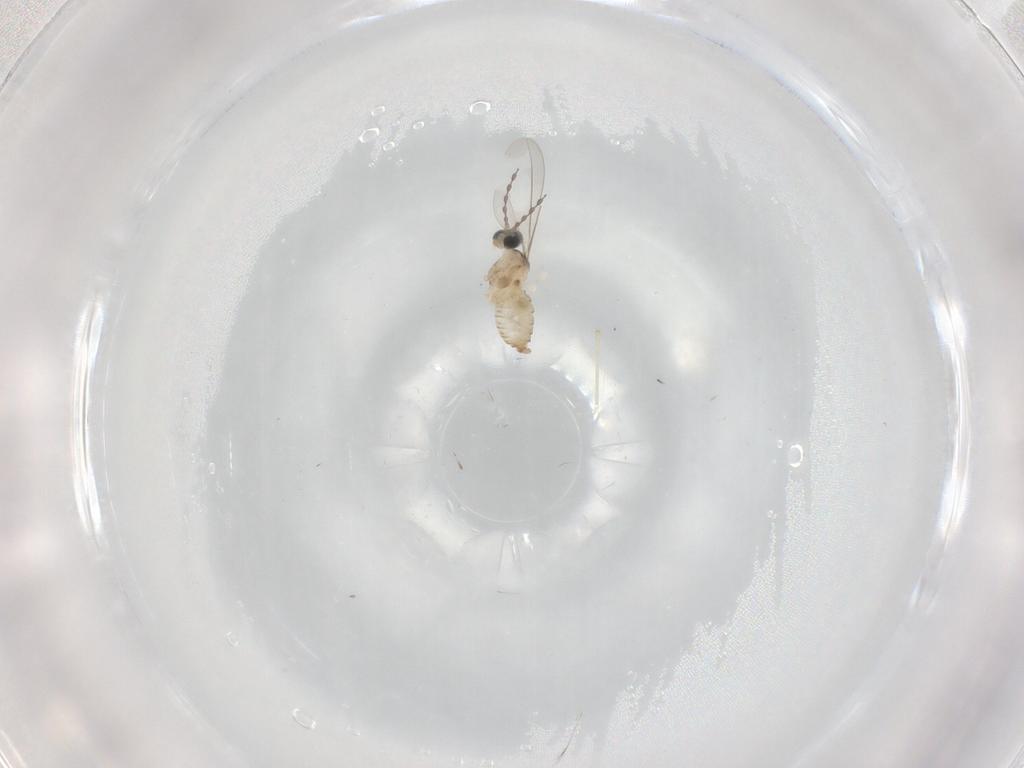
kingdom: Animalia
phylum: Arthropoda
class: Insecta
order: Diptera
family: Cecidomyiidae
